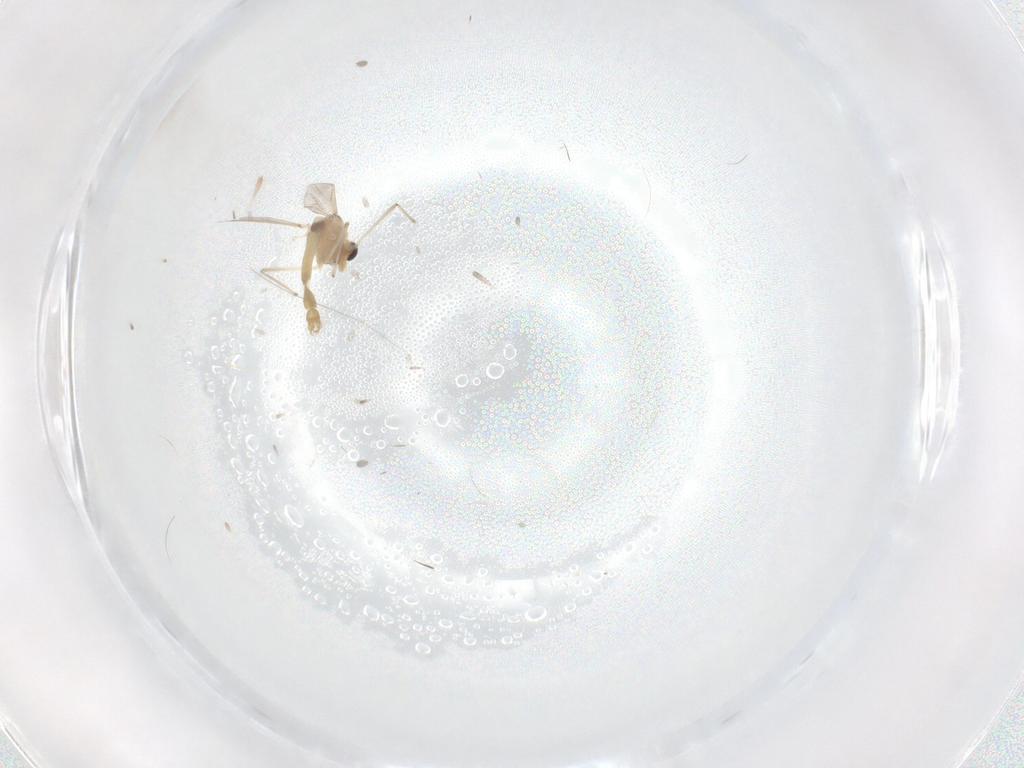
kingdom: Animalia
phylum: Arthropoda
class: Insecta
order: Diptera
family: Chironomidae
